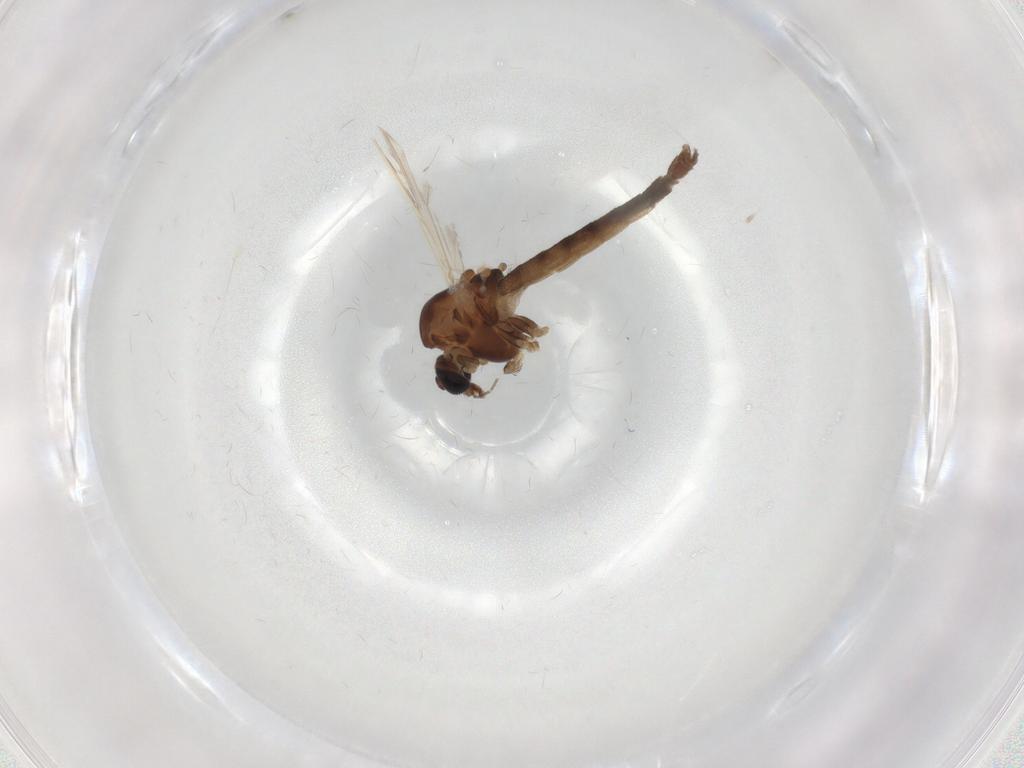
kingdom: Animalia
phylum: Arthropoda
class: Insecta
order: Diptera
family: Chironomidae
